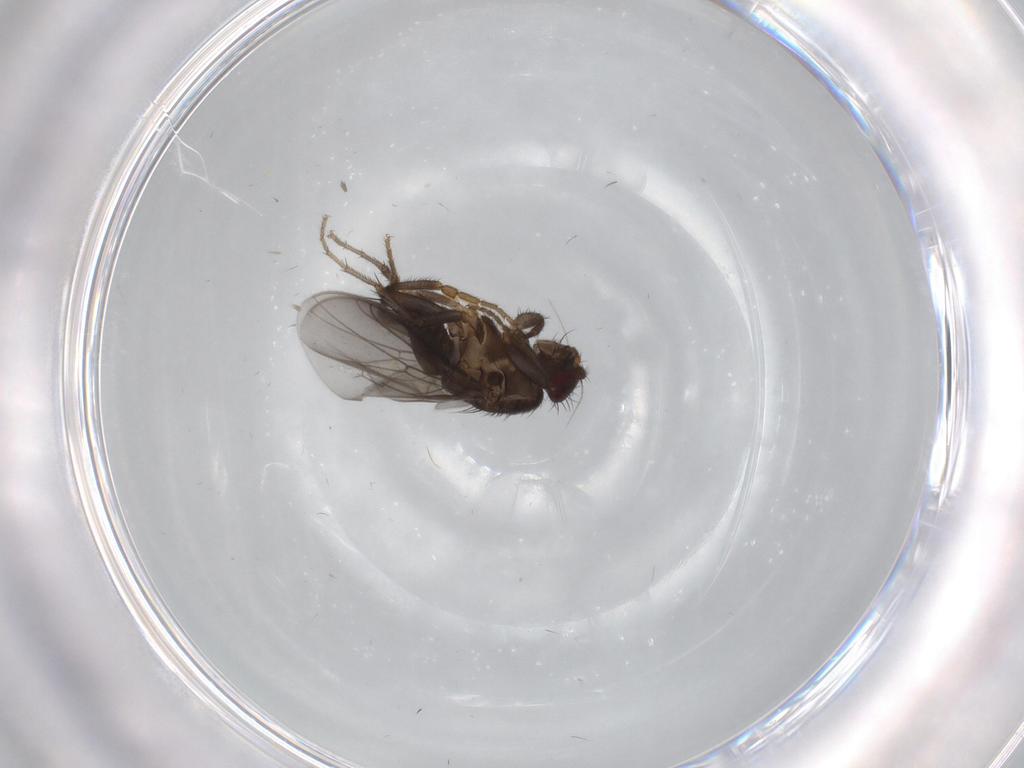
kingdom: Animalia
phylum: Arthropoda
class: Insecta
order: Diptera
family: Sphaeroceridae
